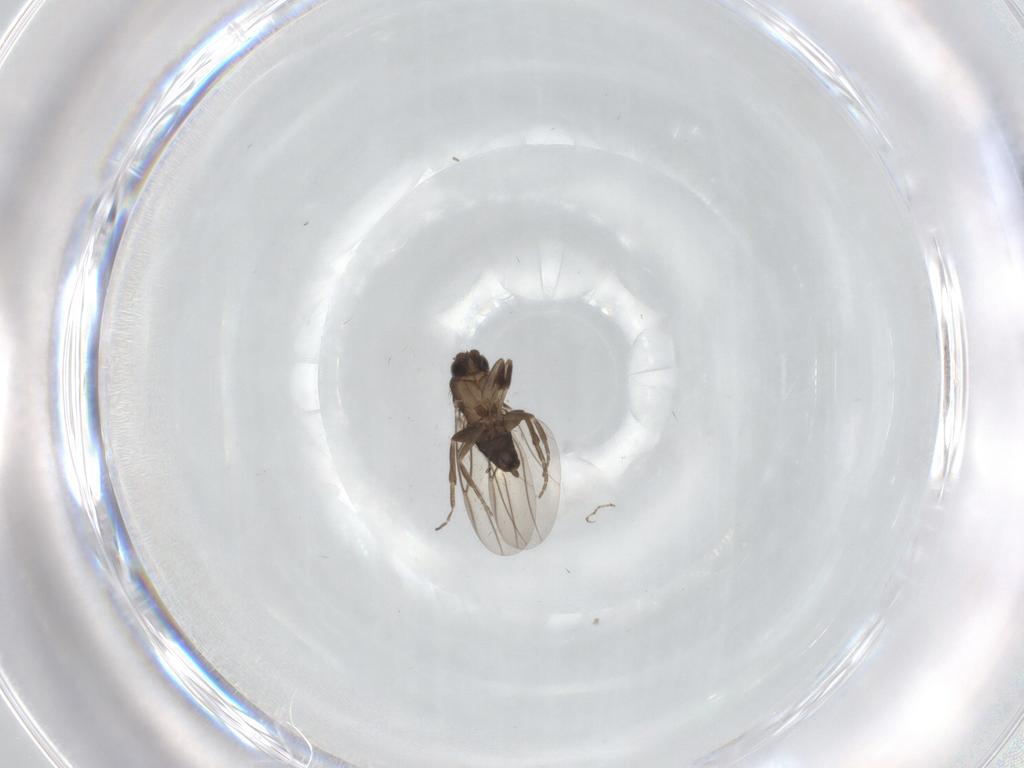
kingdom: Animalia
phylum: Arthropoda
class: Insecta
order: Diptera
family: Phoridae
